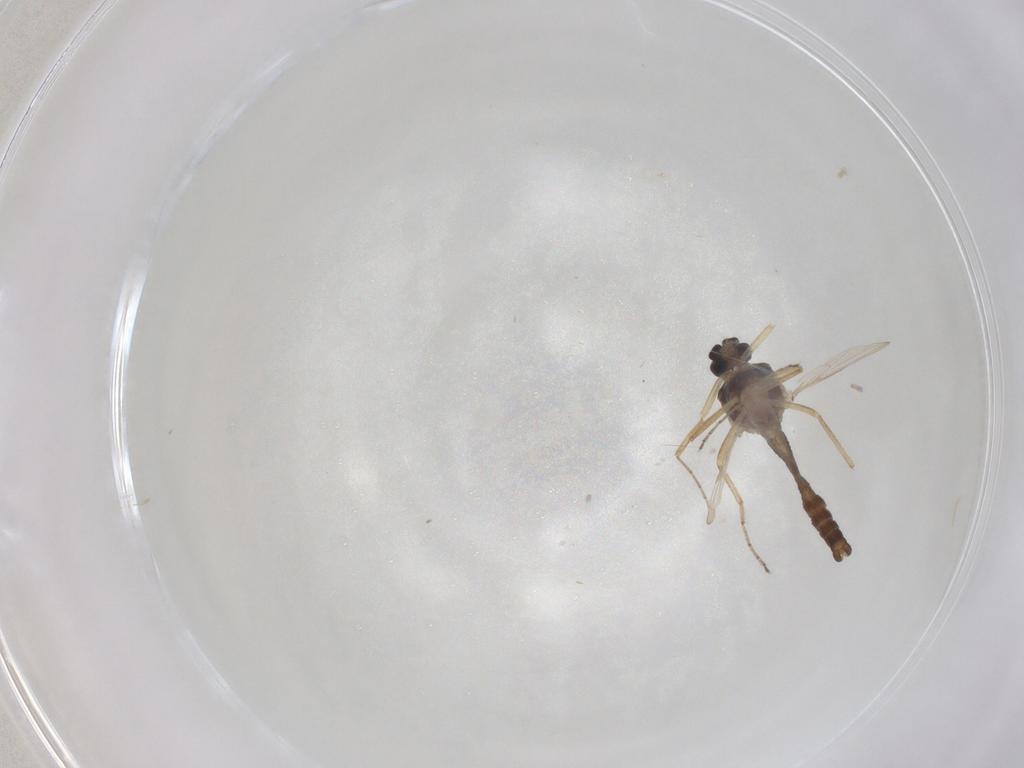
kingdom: Animalia
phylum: Arthropoda
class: Insecta
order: Diptera
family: Ceratopogonidae
